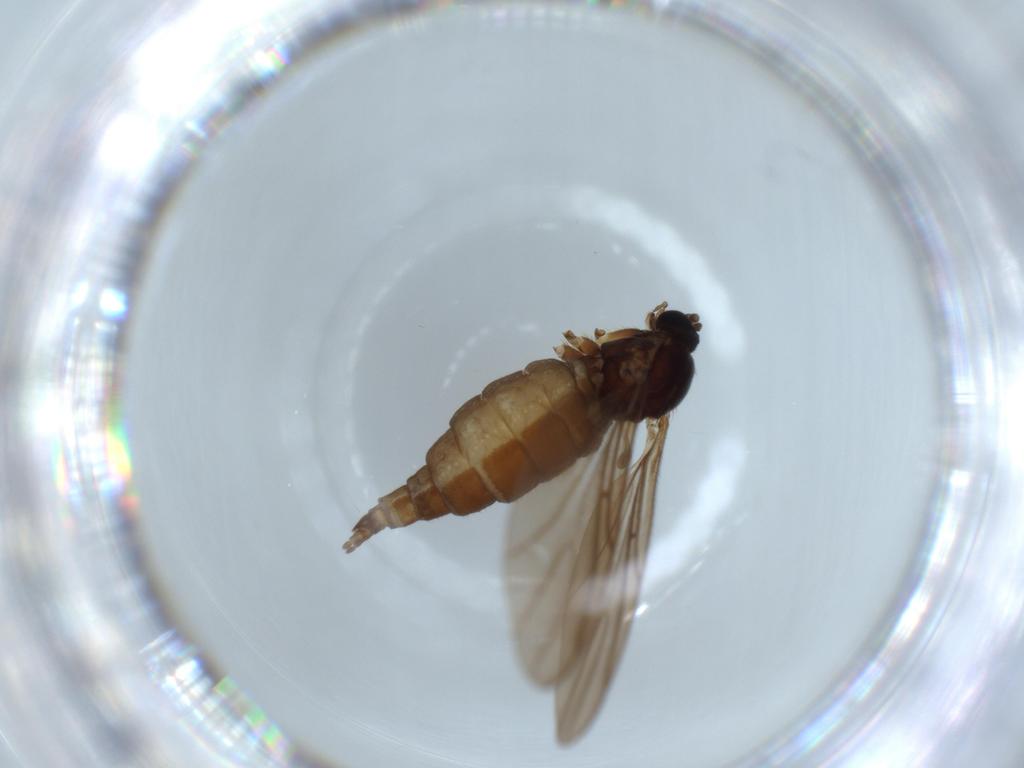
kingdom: Animalia
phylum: Arthropoda
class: Insecta
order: Diptera
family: Sciaridae
